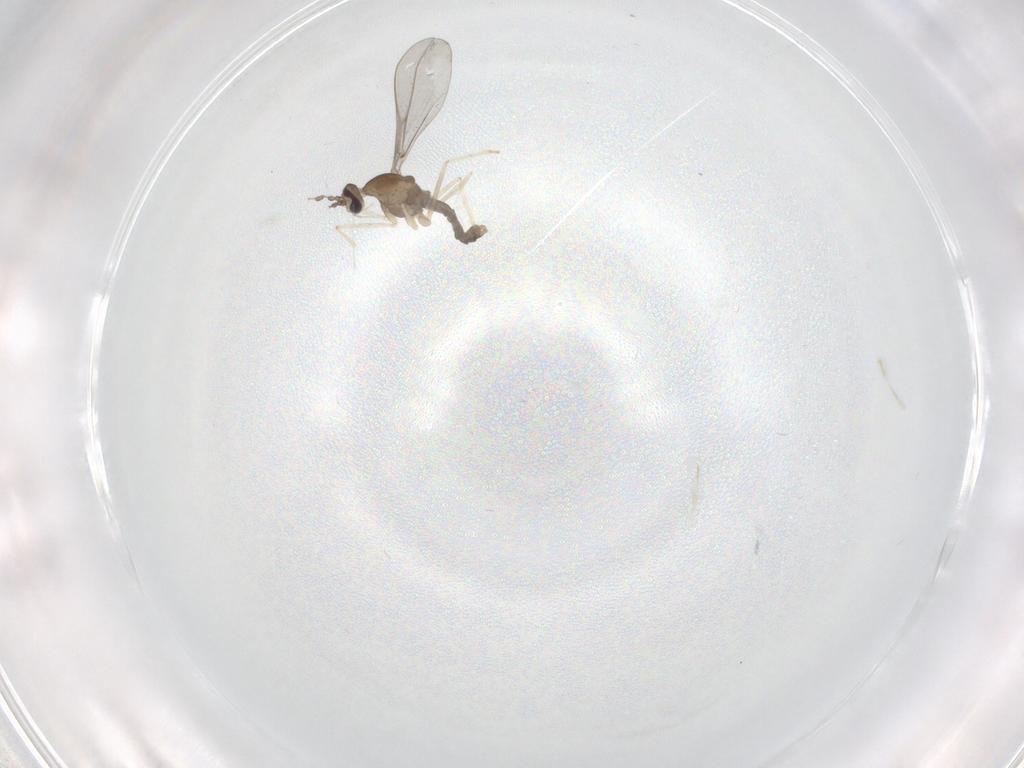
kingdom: Animalia
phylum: Arthropoda
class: Insecta
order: Diptera
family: Cecidomyiidae
